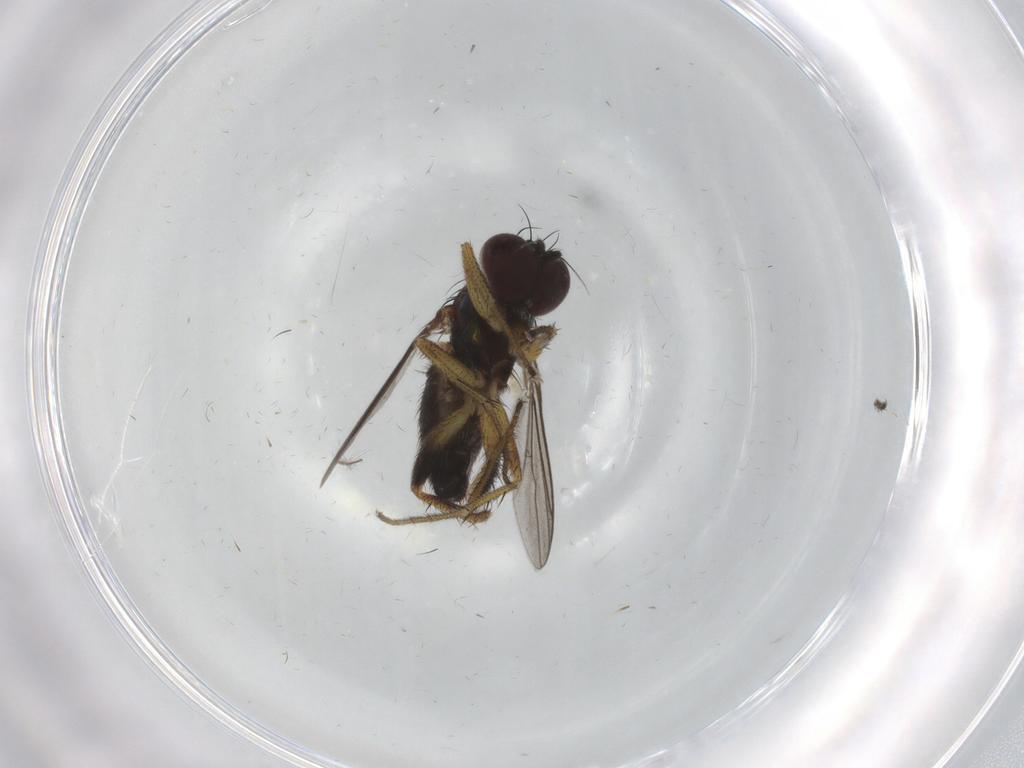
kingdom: Animalia
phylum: Arthropoda
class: Insecta
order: Diptera
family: Dolichopodidae
